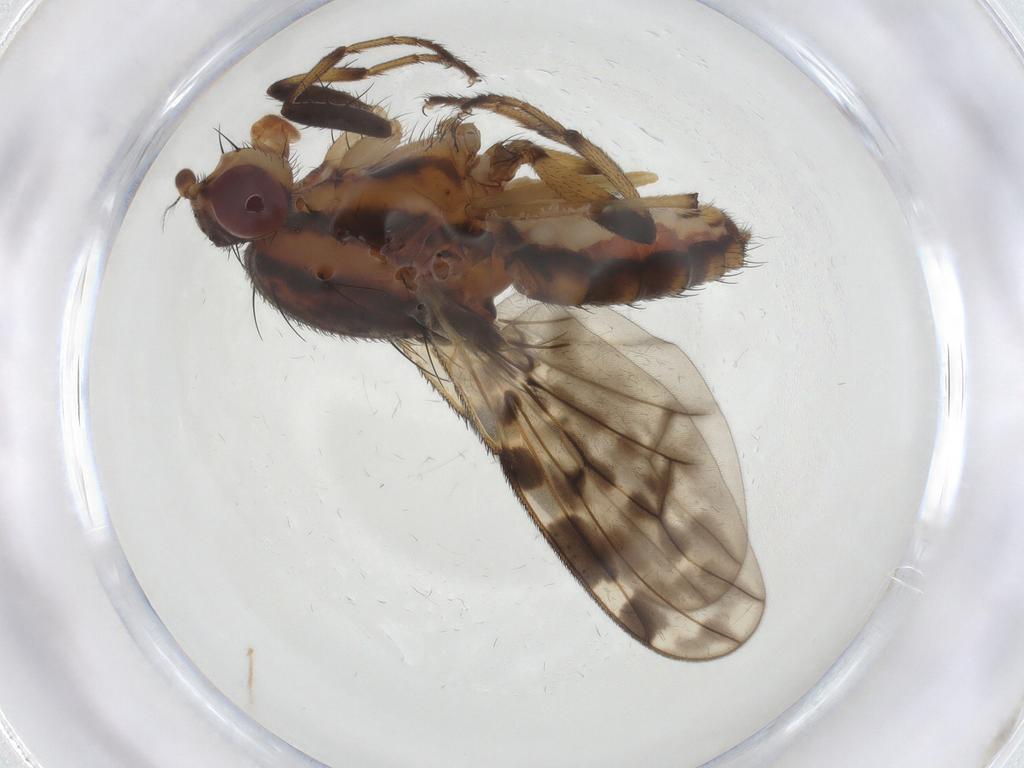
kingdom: Animalia
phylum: Arthropoda
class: Insecta
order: Diptera
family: Heleomyzidae
